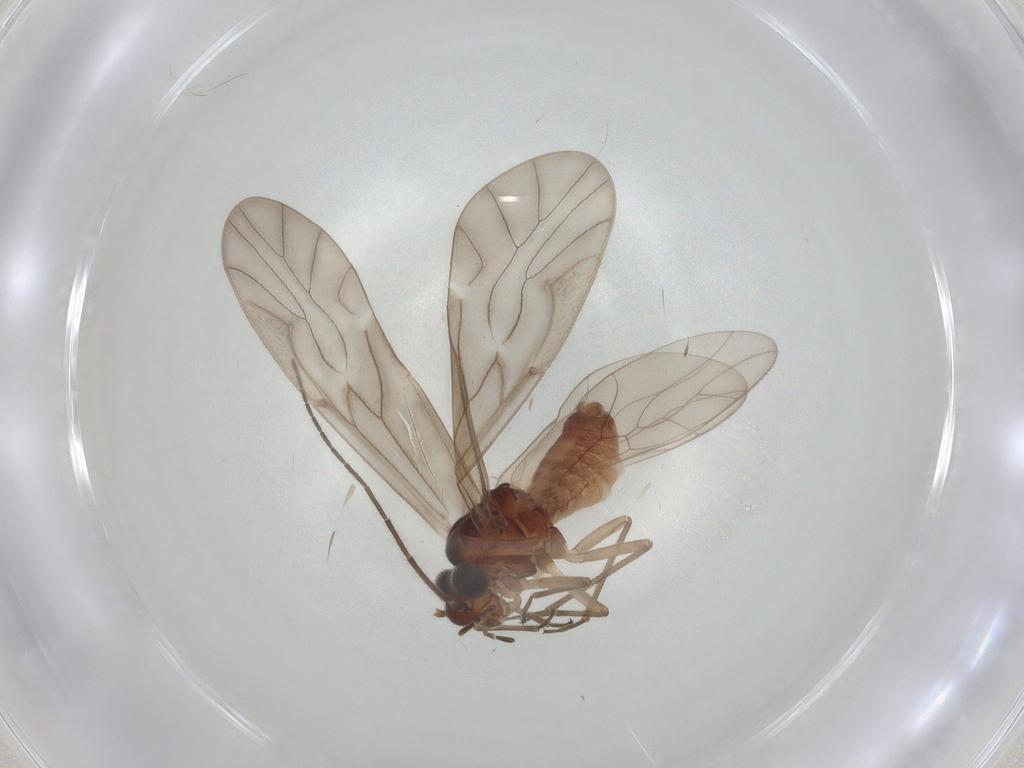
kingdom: Animalia
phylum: Arthropoda
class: Insecta
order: Psocodea
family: Caeciliusidae
